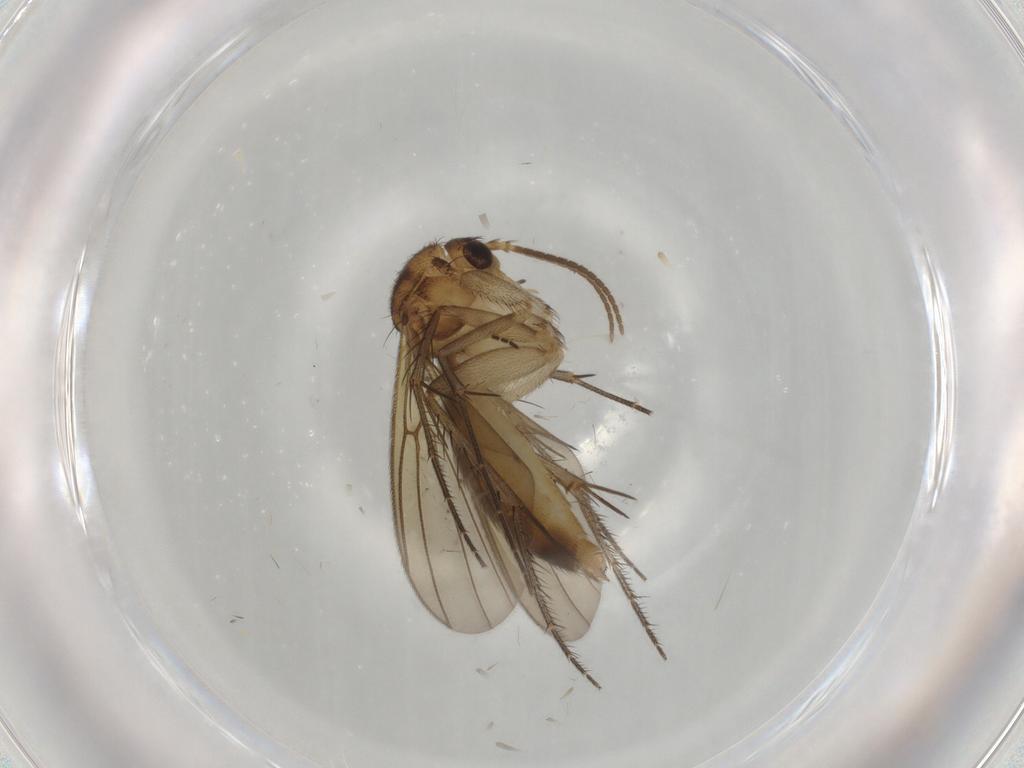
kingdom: Animalia
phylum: Arthropoda
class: Insecta
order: Diptera
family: Mycetophilidae
